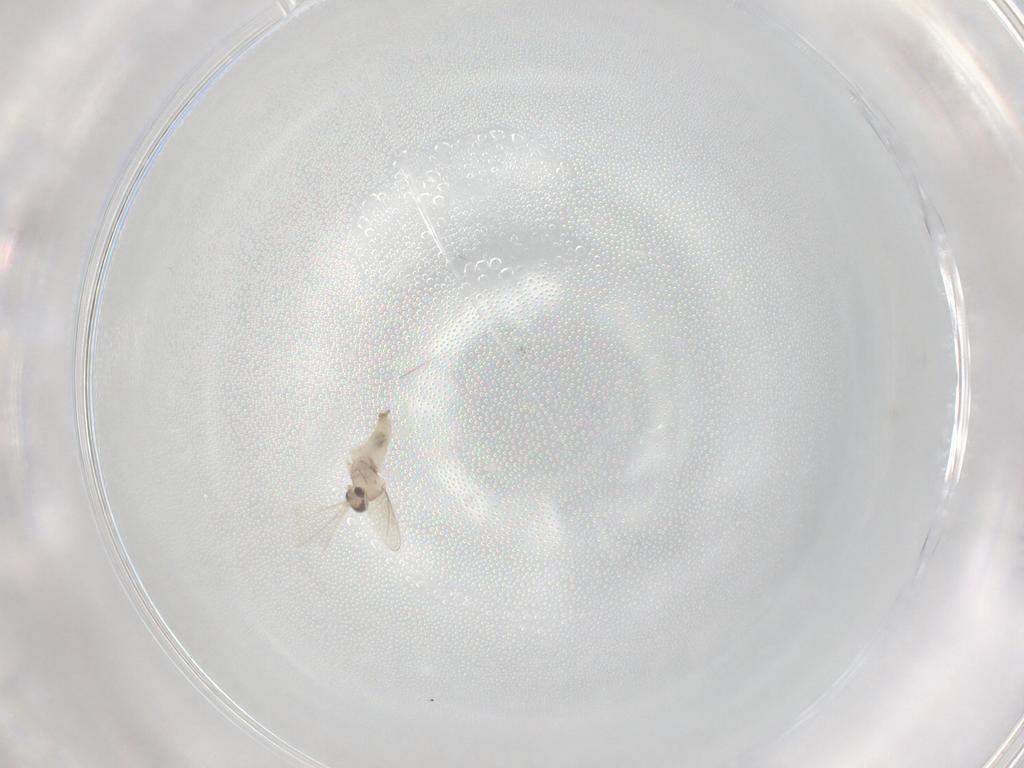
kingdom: Animalia
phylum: Arthropoda
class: Insecta
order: Diptera
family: Cecidomyiidae
